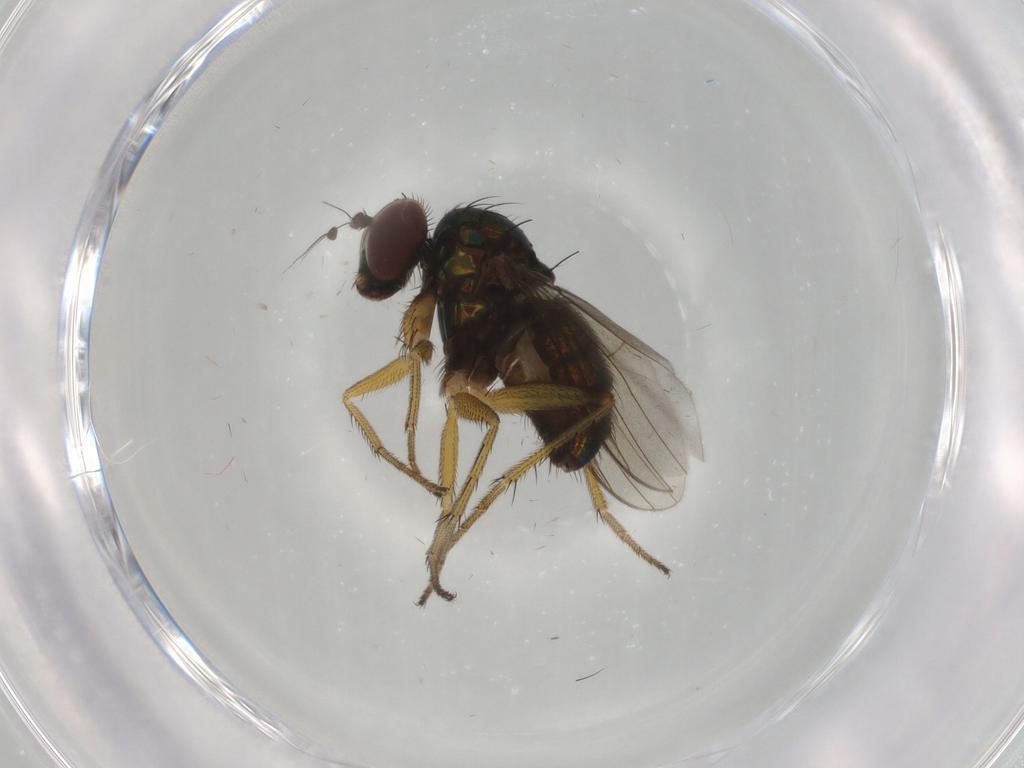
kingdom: Animalia
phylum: Arthropoda
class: Insecta
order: Diptera
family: Dolichopodidae
